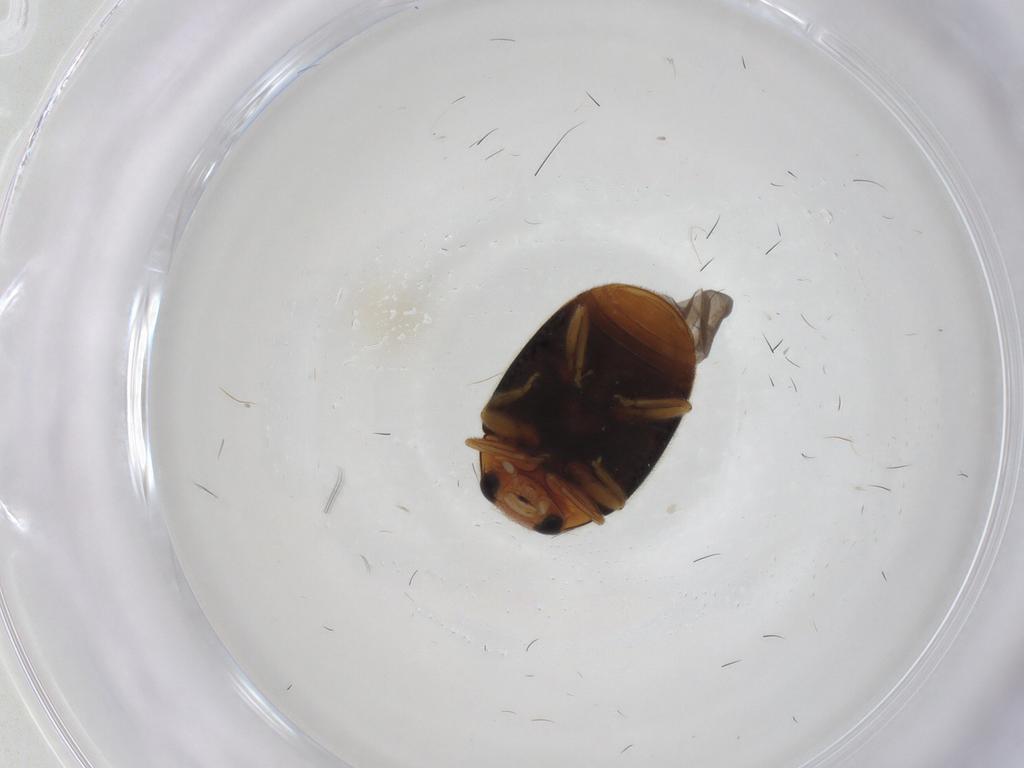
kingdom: Animalia
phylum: Arthropoda
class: Insecta
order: Coleoptera
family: Coccinellidae
